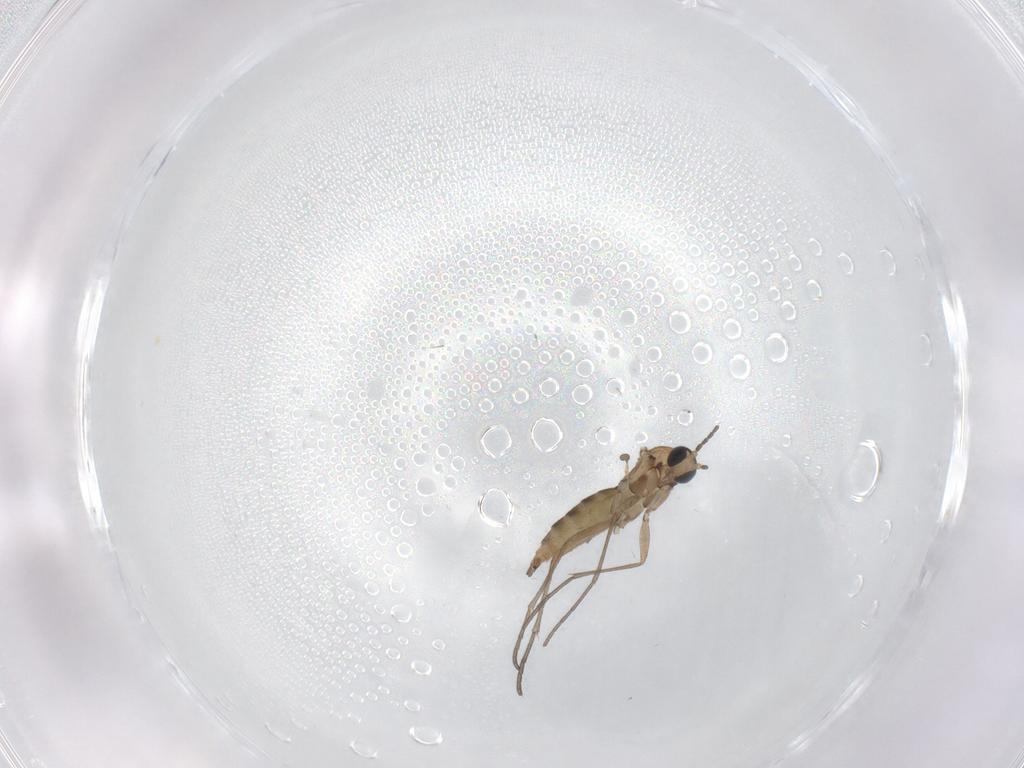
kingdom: Animalia
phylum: Arthropoda
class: Insecta
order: Diptera
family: Sciaridae
